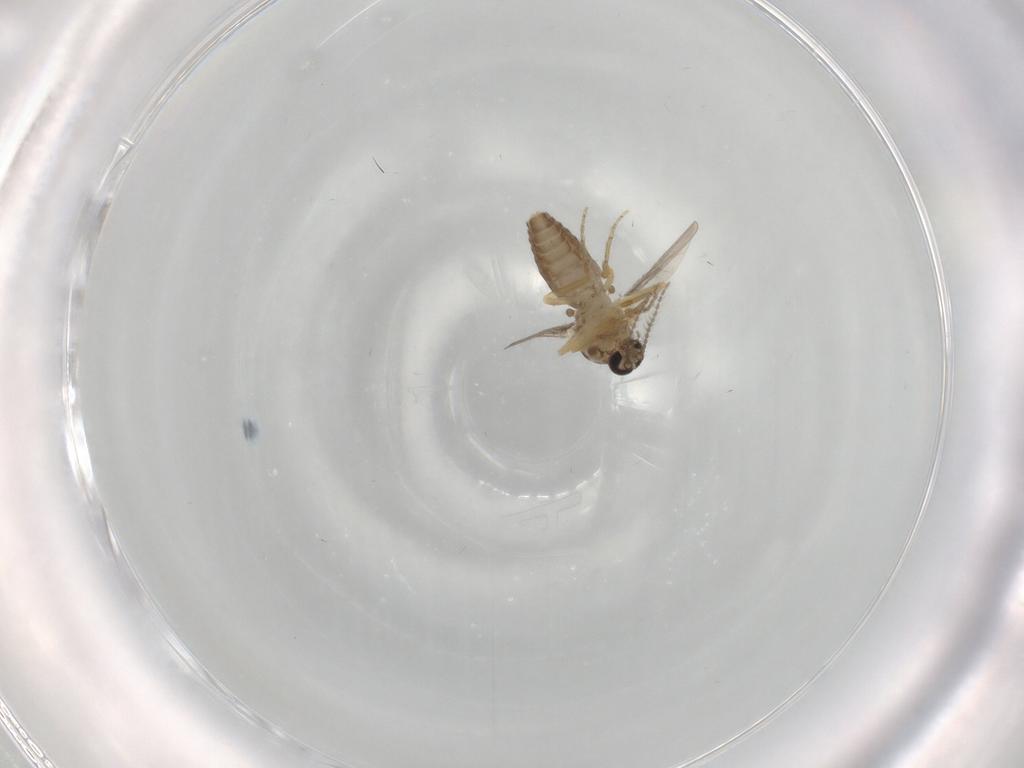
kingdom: Animalia
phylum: Arthropoda
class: Insecta
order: Diptera
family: Ceratopogonidae
